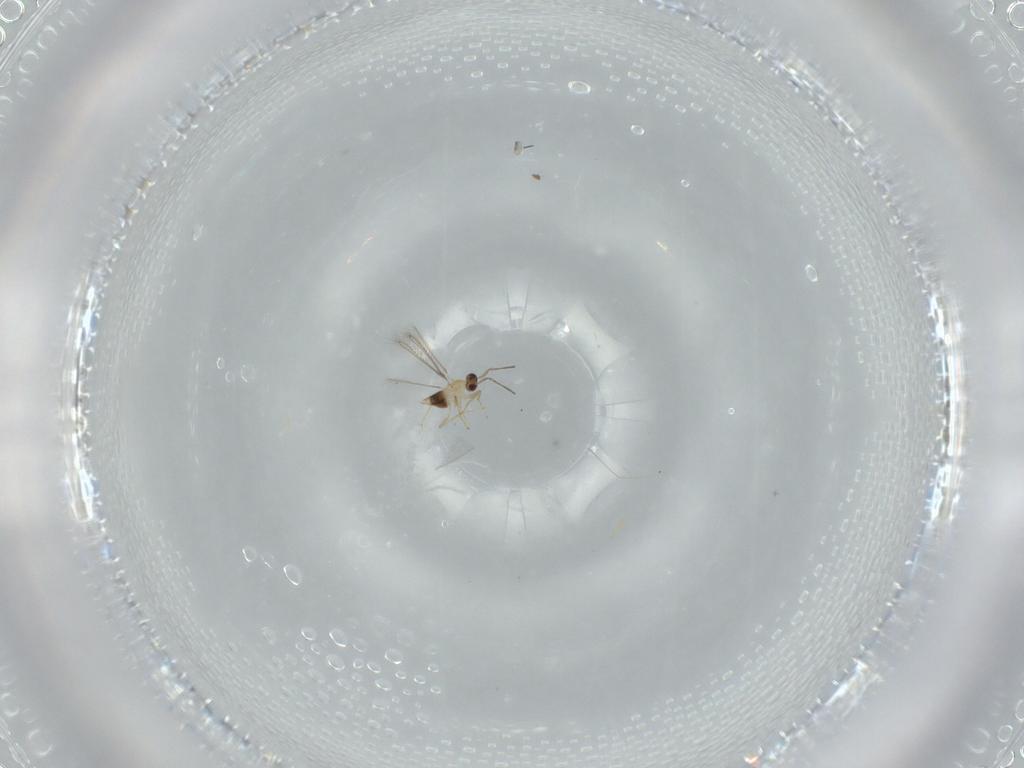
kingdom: Animalia
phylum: Arthropoda
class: Insecta
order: Hymenoptera
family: Mymaridae
